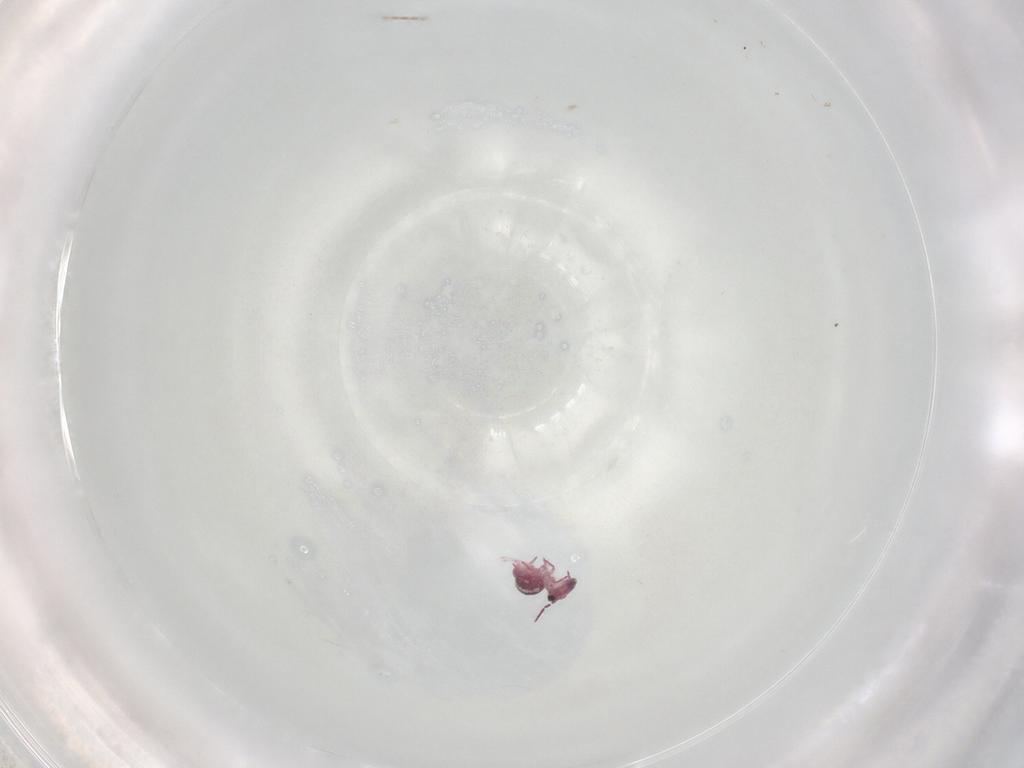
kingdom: Animalia
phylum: Arthropoda
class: Collembola
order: Symphypleona
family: Sminthurididae
